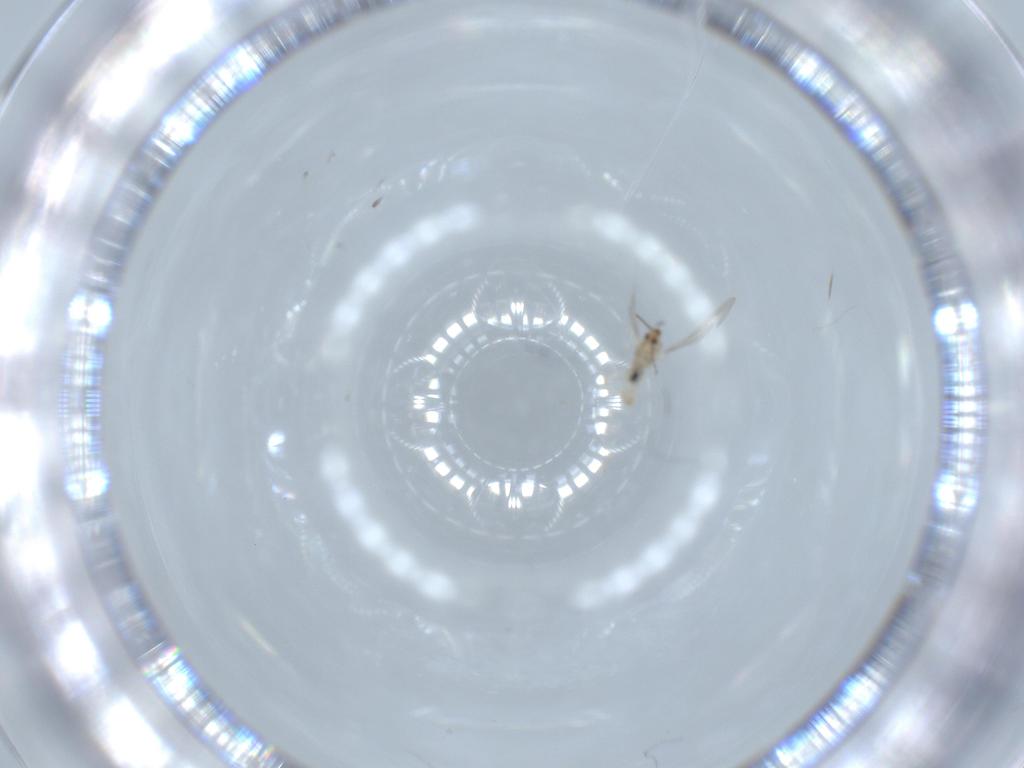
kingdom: Animalia
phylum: Arthropoda
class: Insecta
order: Diptera
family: Cecidomyiidae
